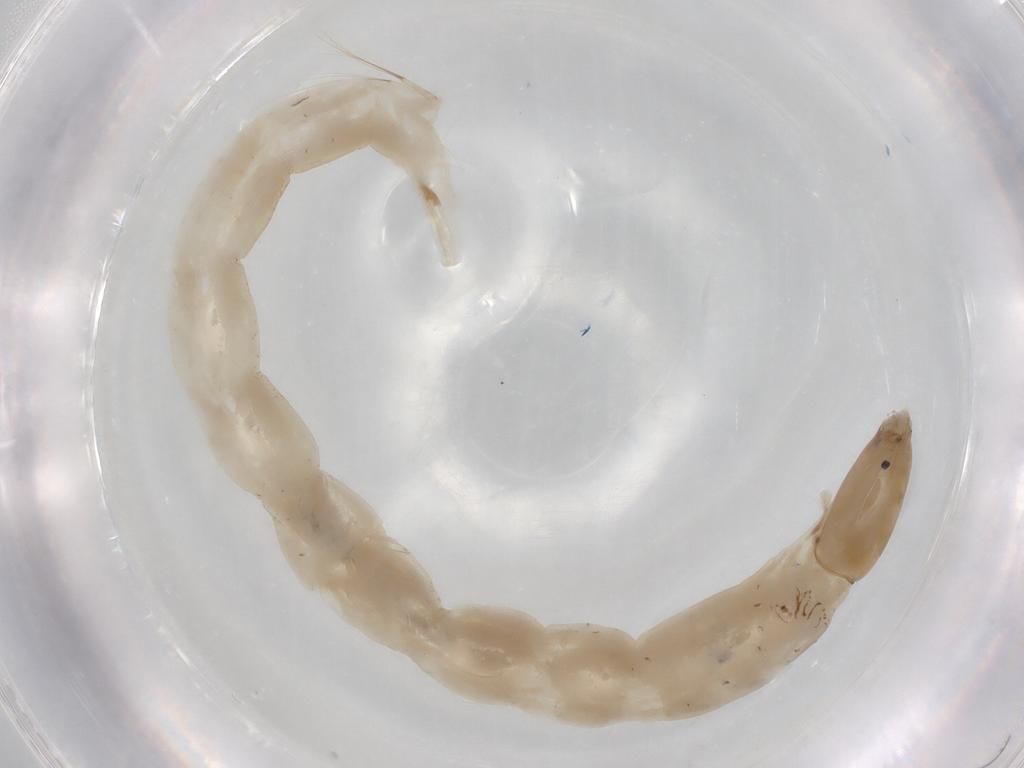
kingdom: Animalia
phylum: Arthropoda
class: Insecta
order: Diptera
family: Chironomidae
